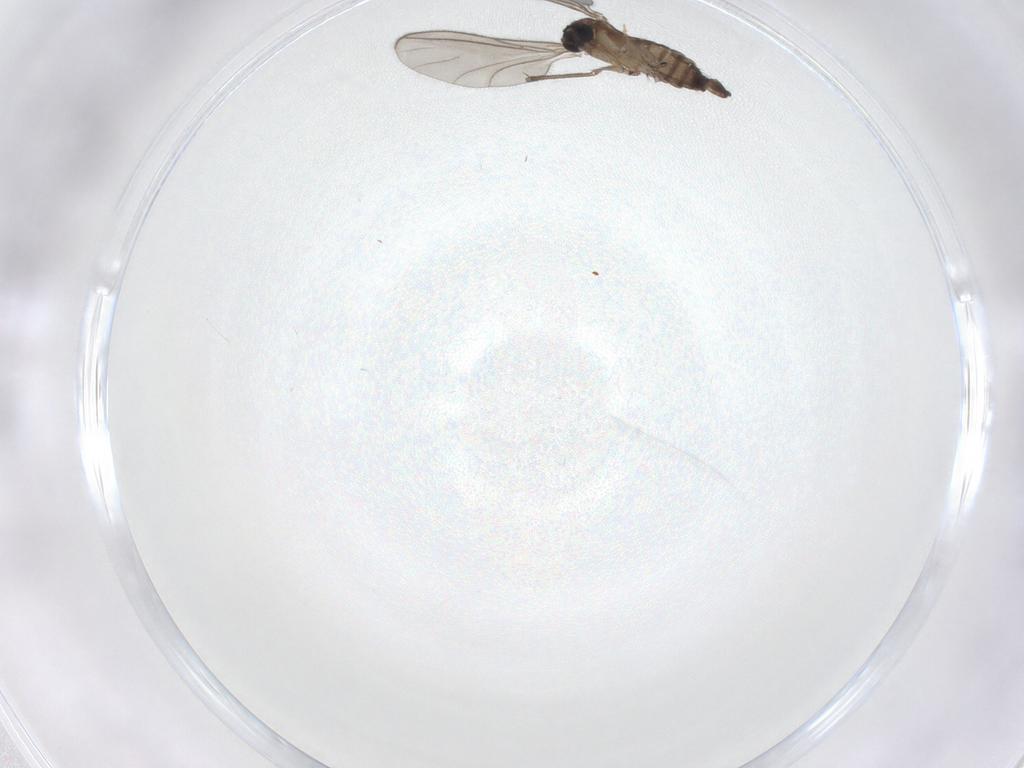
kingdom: Animalia
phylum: Arthropoda
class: Insecta
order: Diptera
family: Sciaridae
